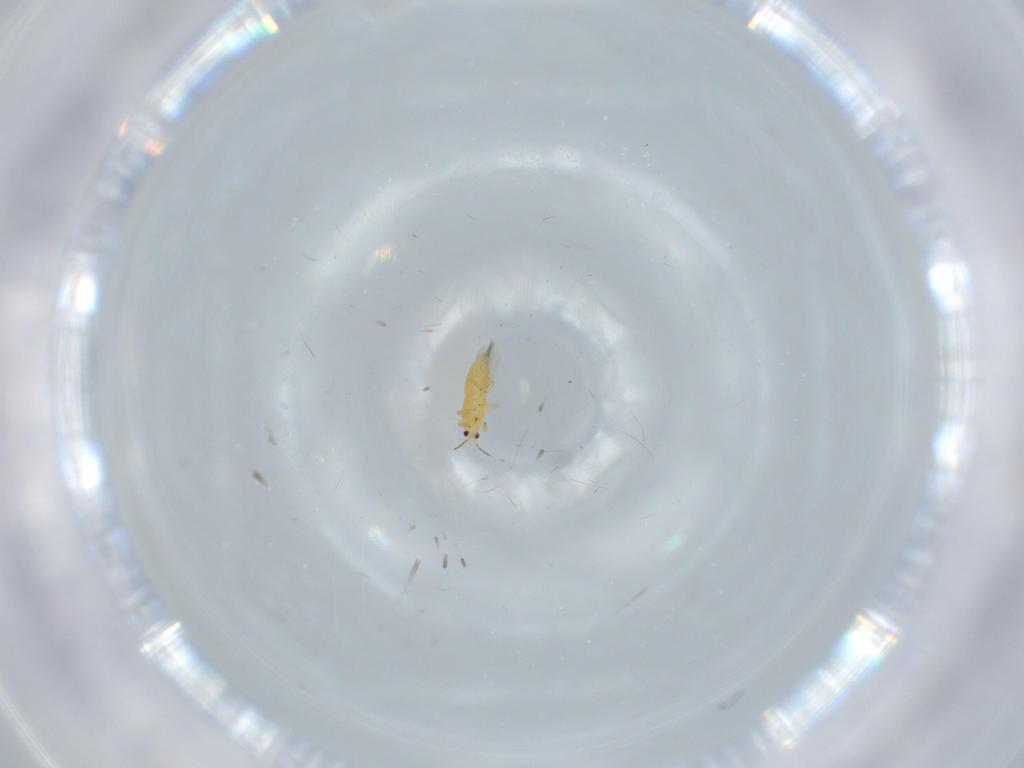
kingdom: Animalia
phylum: Arthropoda
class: Insecta
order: Thysanoptera
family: Thripidae
